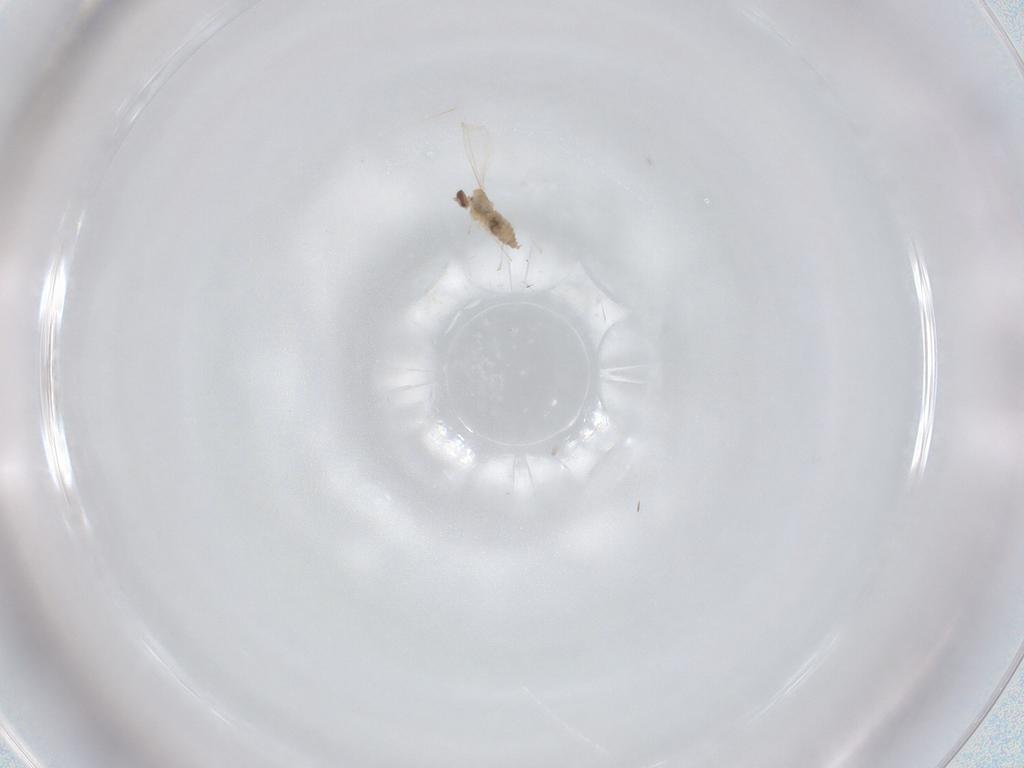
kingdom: Animalia
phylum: Arthropoda
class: Insecta
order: Diptera
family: Cecidomyiidae
